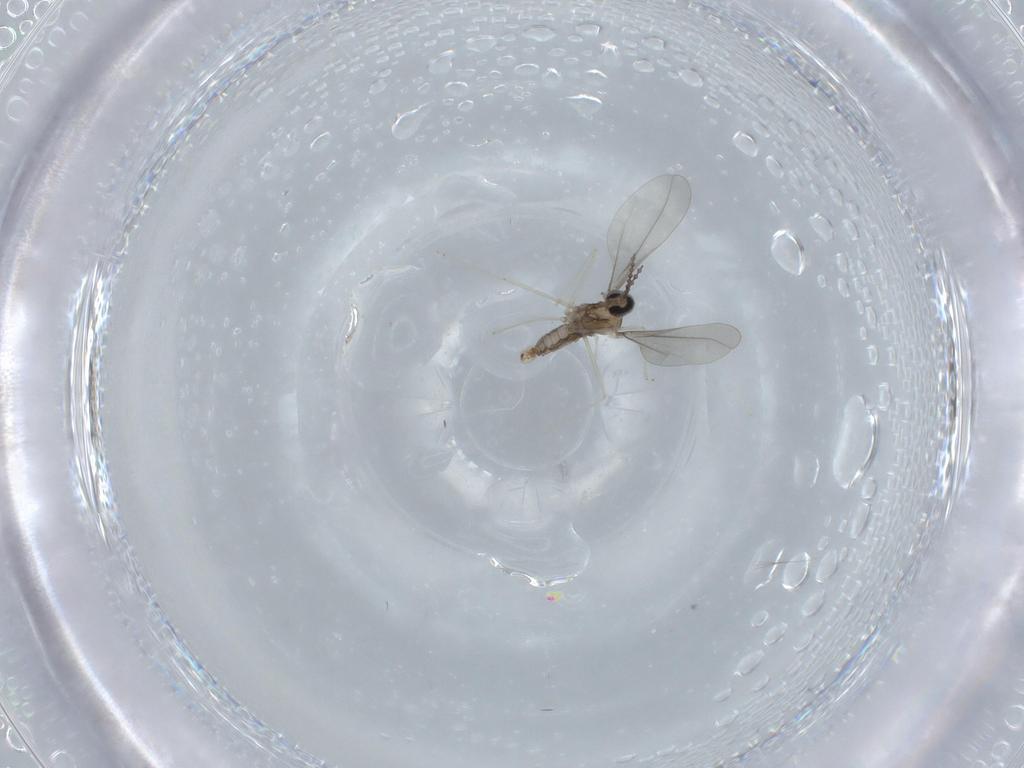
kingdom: Animalia
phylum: Arthropoda
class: Insecta
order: Diptera
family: Cecidomyiidae
